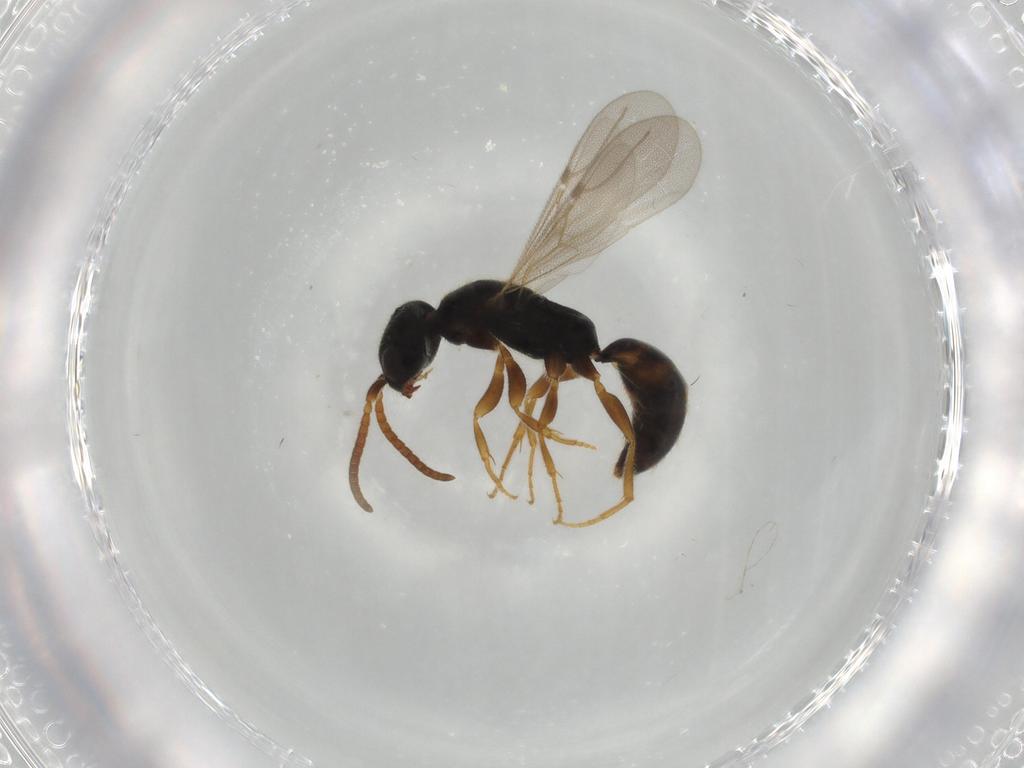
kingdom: Animalia
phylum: Arthropoda
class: Insecta
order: Hymenoptera
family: Bethylidae
